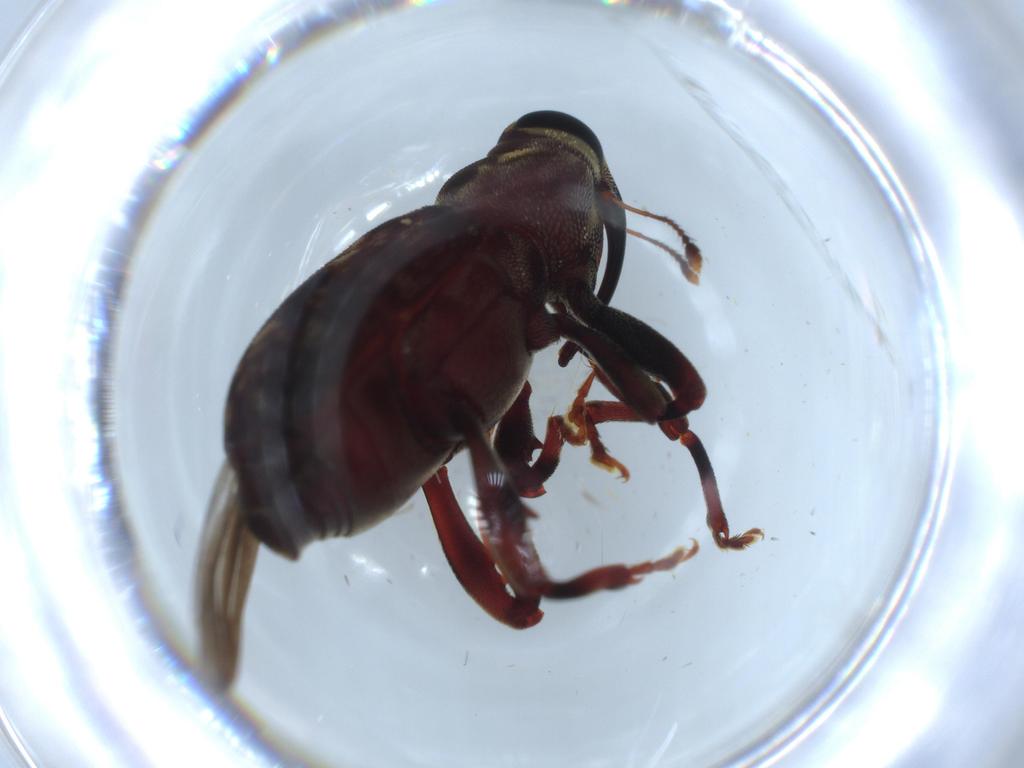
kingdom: Animalia
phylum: Arthropoda
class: Insecta
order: Coleoptera
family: Curculionidae
